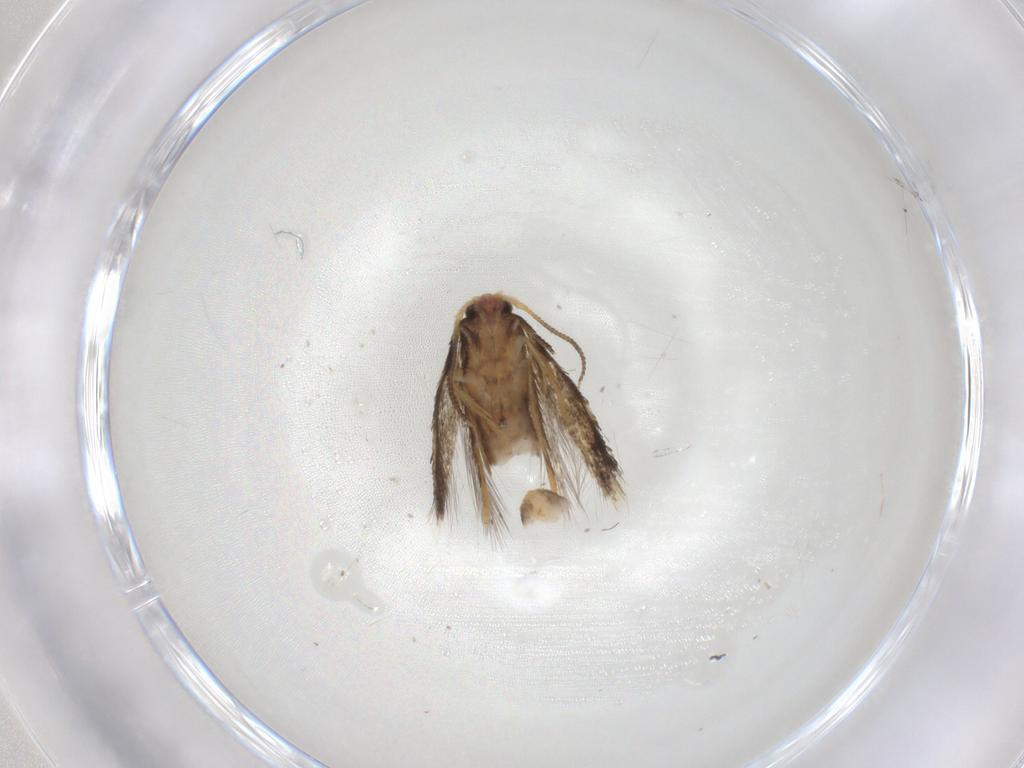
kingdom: Animalia
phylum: Arthropoda
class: Insecta
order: Lepidoptera
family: Nepticulidae
